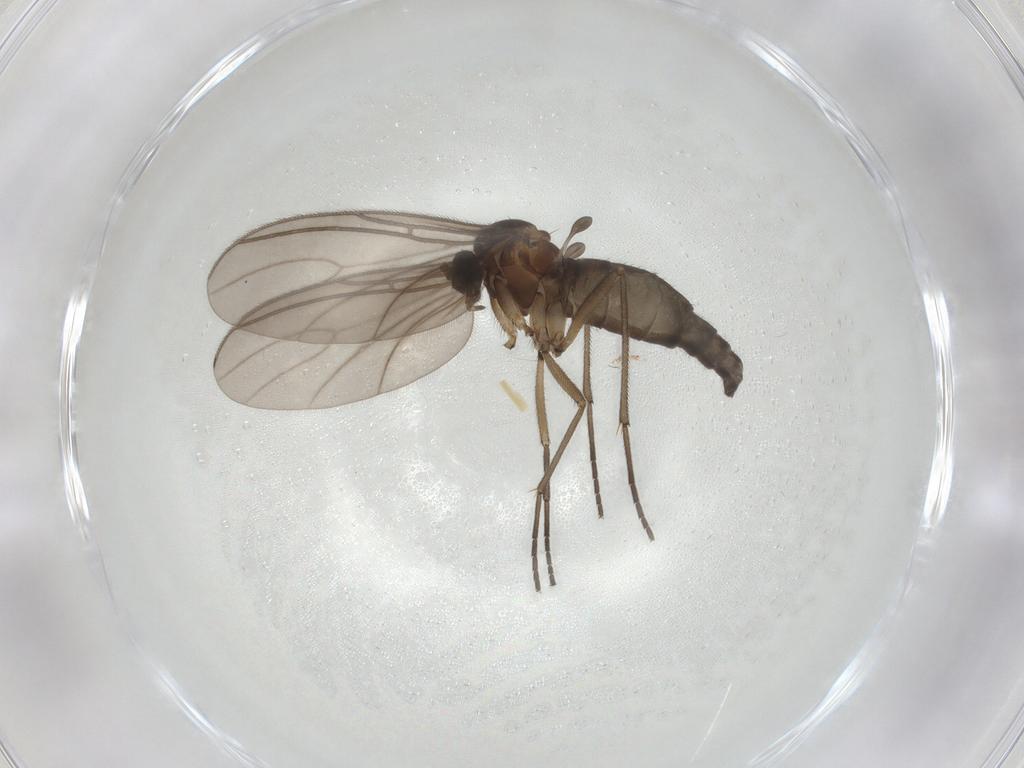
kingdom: Animalia
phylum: Arthropoda
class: Insecta
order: Diptera
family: Sciaridae
